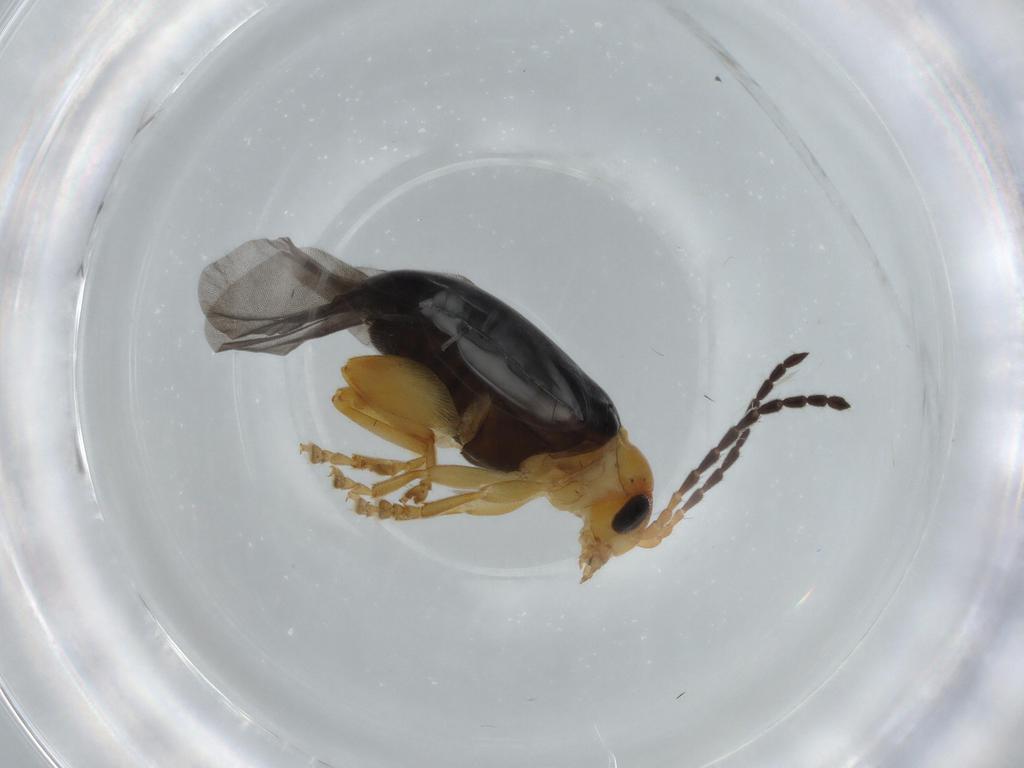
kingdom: Animalia
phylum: Arthropoda
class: Insecta
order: Coleoptera
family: Chrysomelidae
